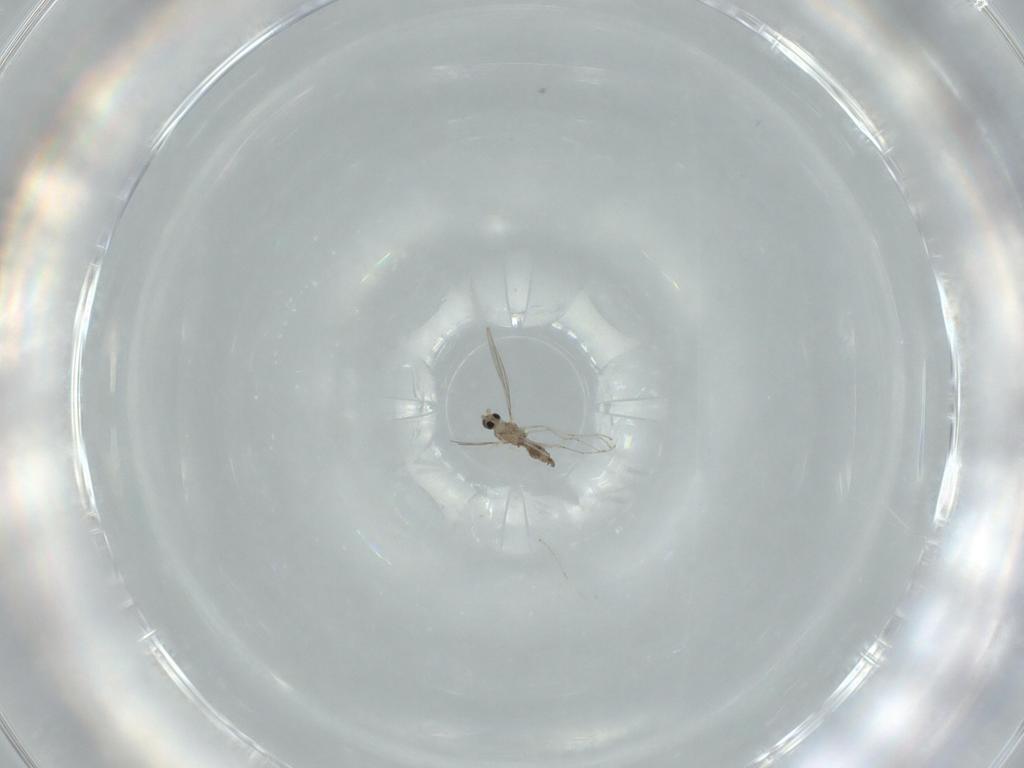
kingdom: Animalia
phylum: Arthropoda
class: Insecta
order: Diptera
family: Cecidomyiidae
